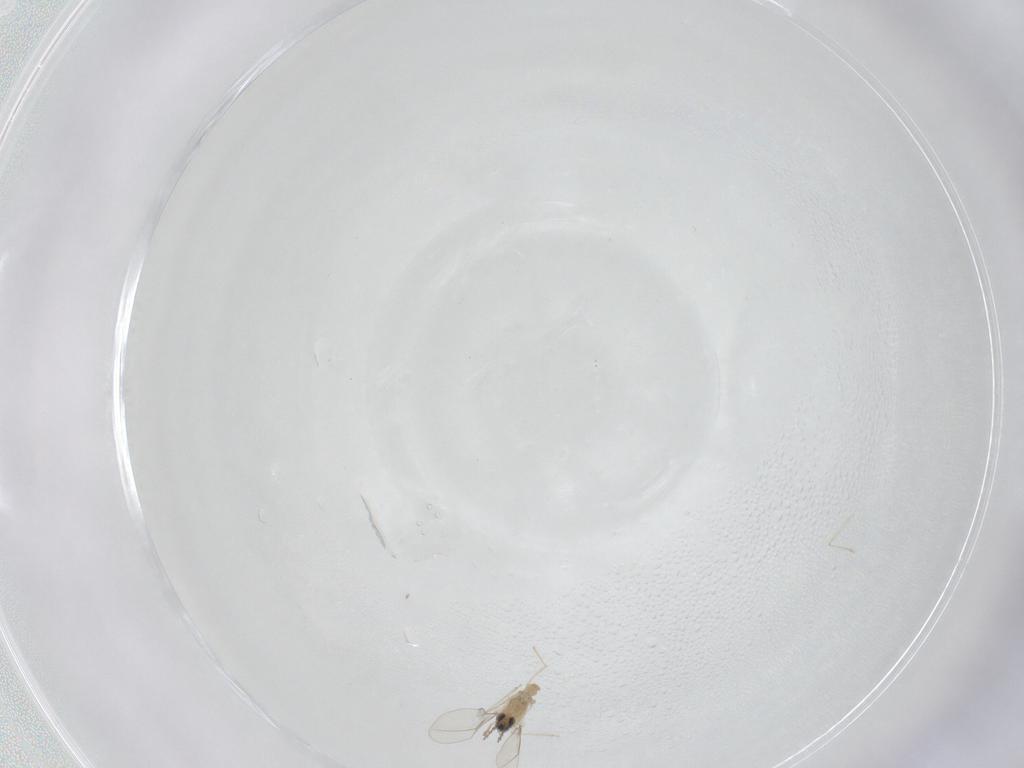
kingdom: Animalia
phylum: Arthropoda
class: Insecta
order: Diptera
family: Cecidomyiidae
